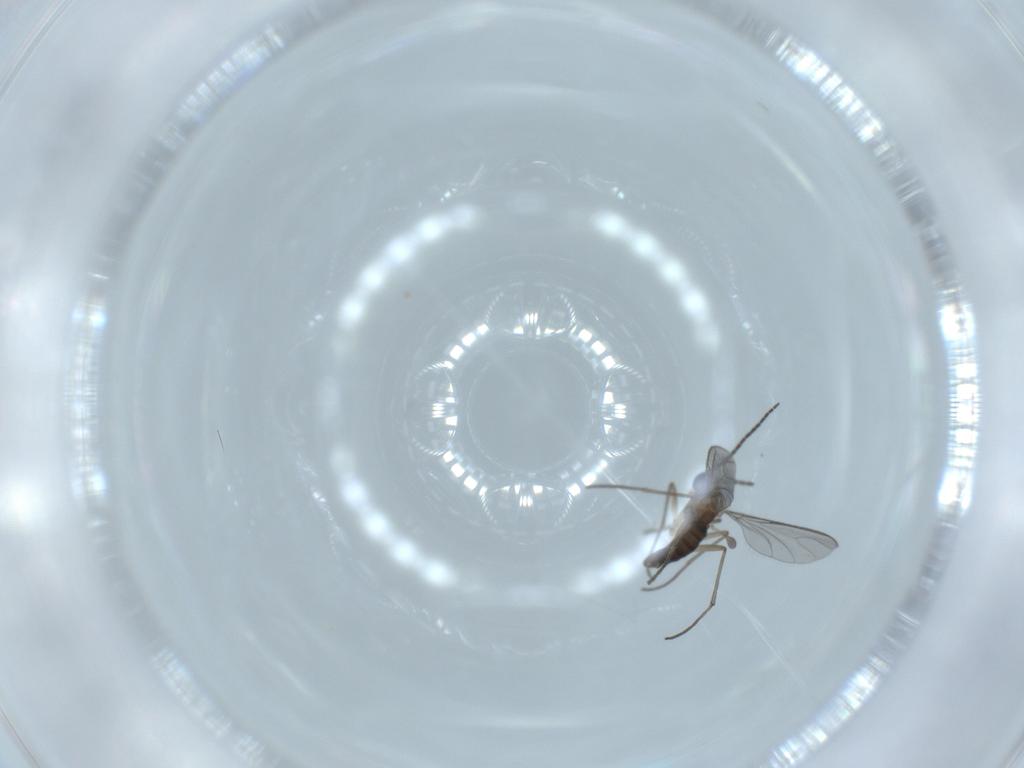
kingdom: Animalia
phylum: Arthropoda
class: Insecta
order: Diptera
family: Sciaridae
